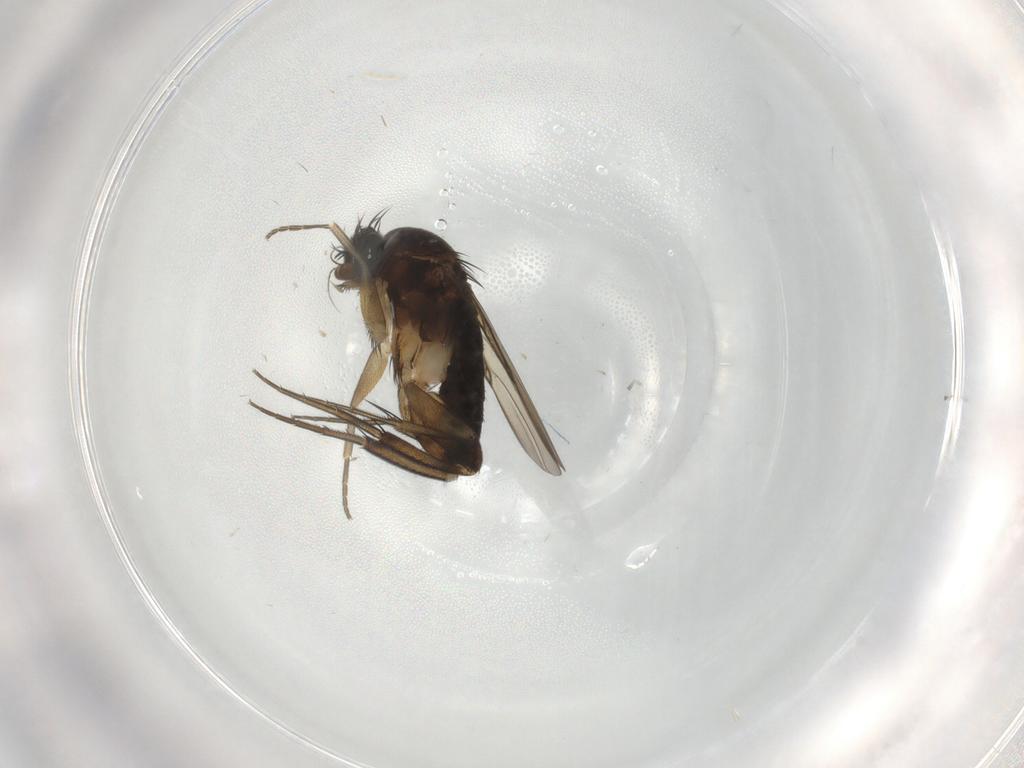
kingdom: Animalia
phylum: Arthropoda
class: Insecta
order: Diptera
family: Phoridae
